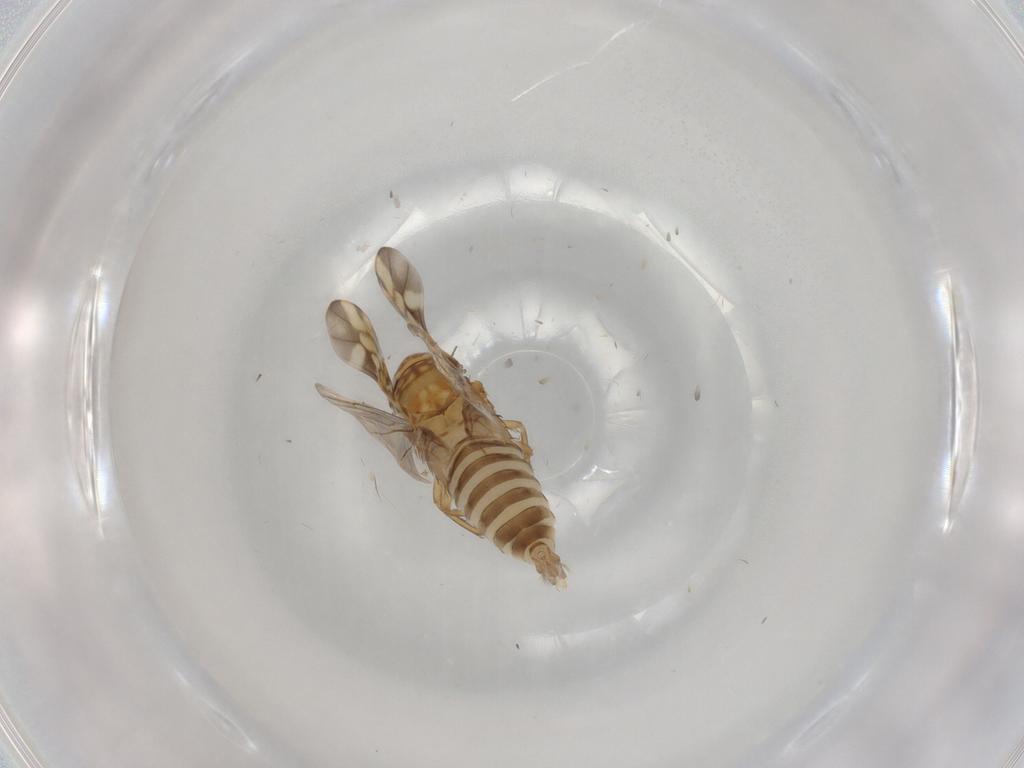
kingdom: Animalia
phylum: Arthropoda
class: Insecta
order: Hemiptera
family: Cicadellidae
